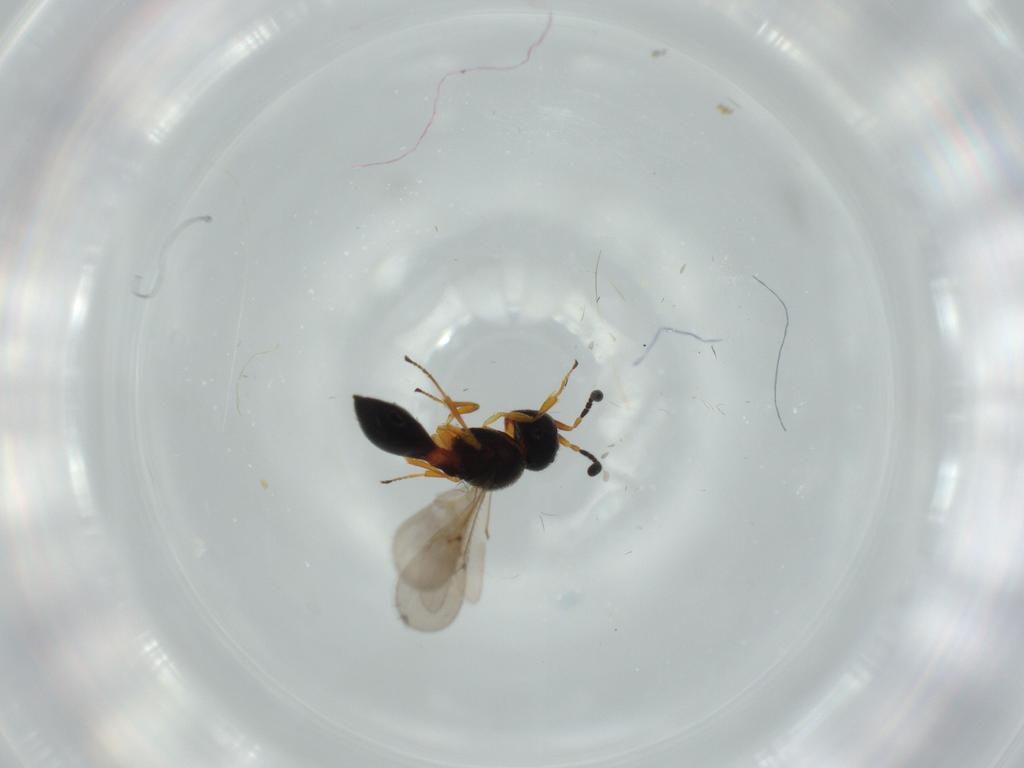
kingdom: Animalia
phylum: Arthropoda
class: Insecta
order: Hymenoptera
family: Scelionidae
